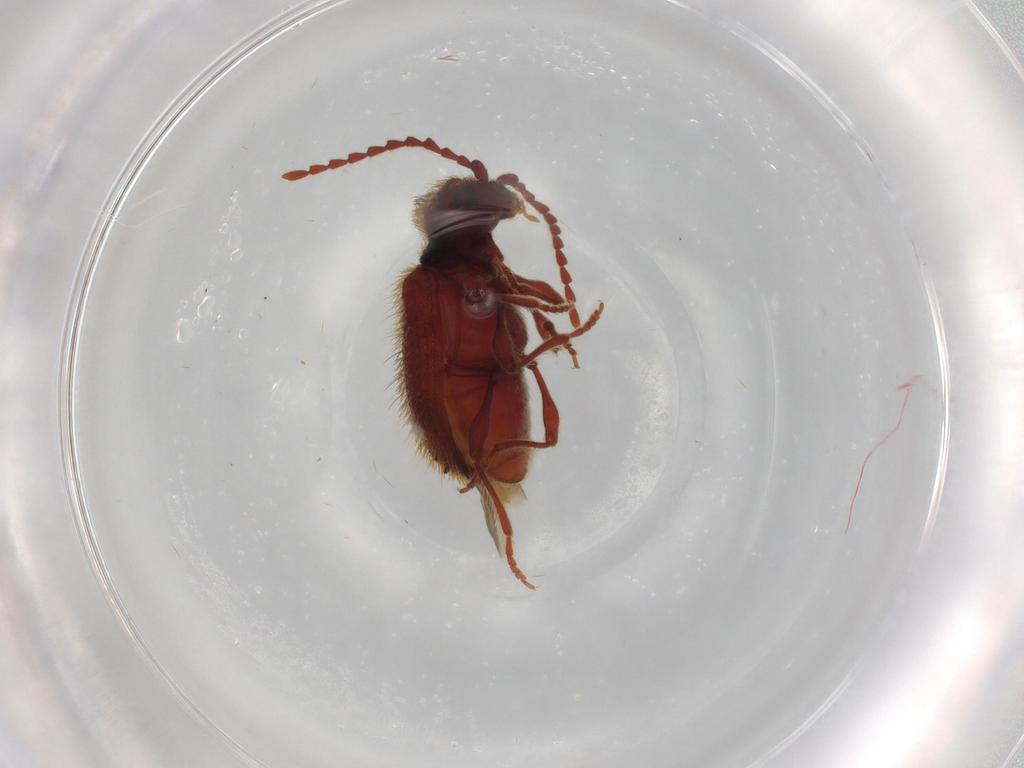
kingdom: Animalia
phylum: Arthropoda
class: Insecta
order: Coleoptera
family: Ptinidae
